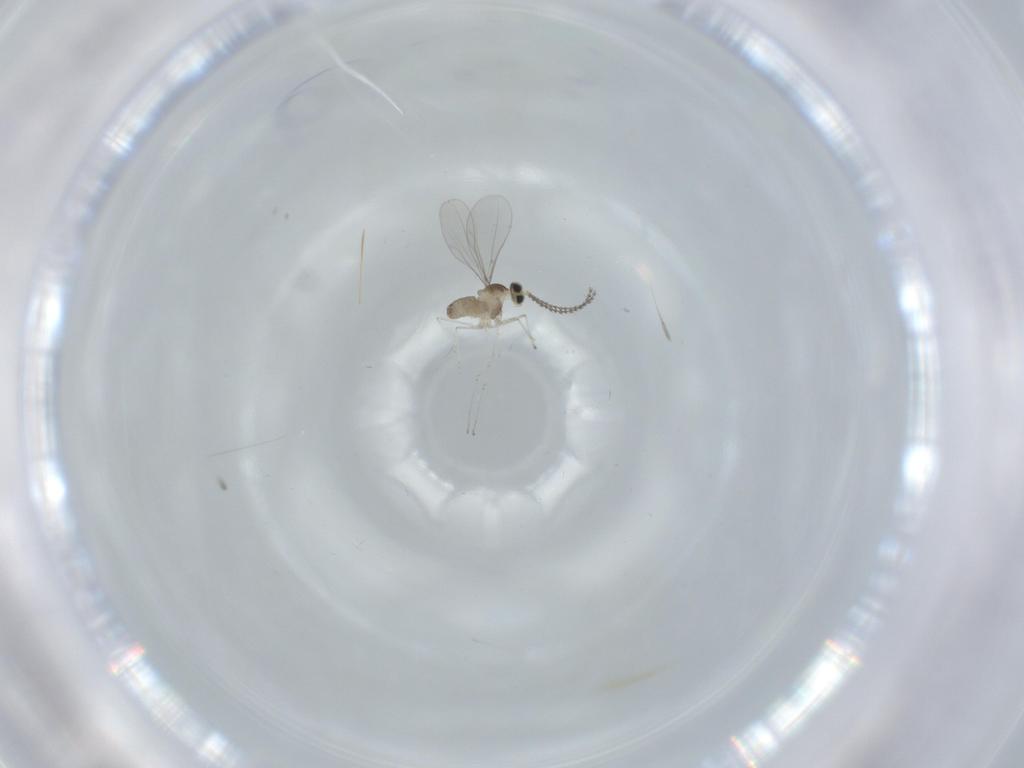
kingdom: Animalia
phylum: Arthropoda
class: Insecta
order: Diptera
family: Cecidomyiidae
